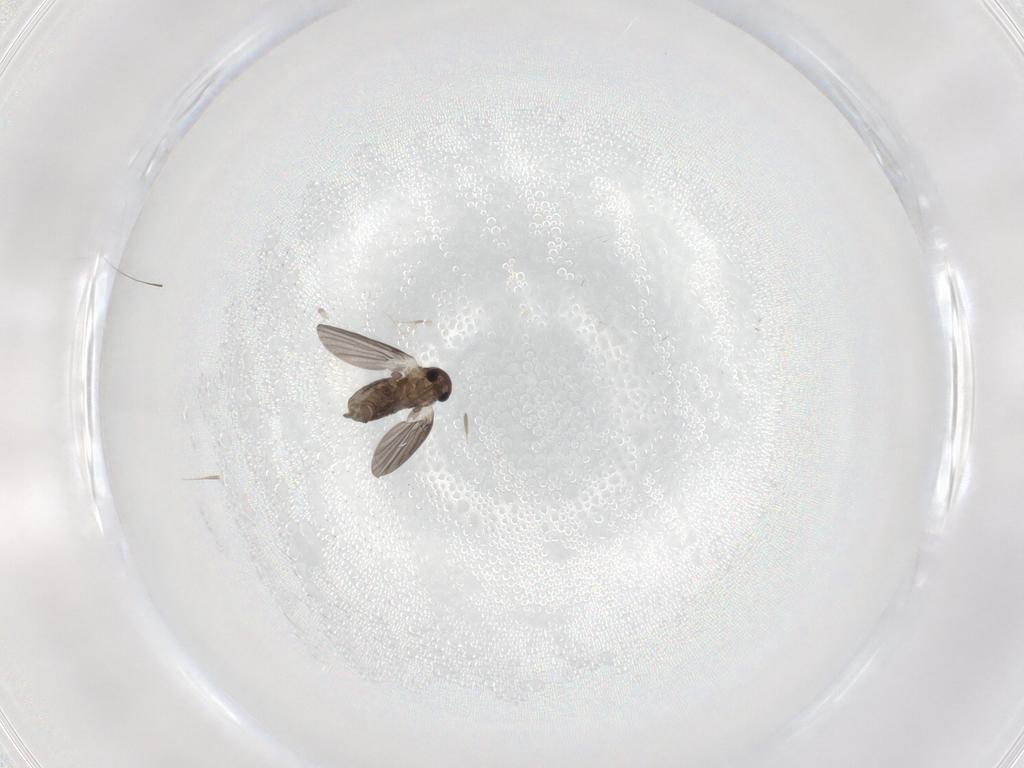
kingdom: Animalia
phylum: Arthropoda
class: Insecta
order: Diptera
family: Psychodidae
